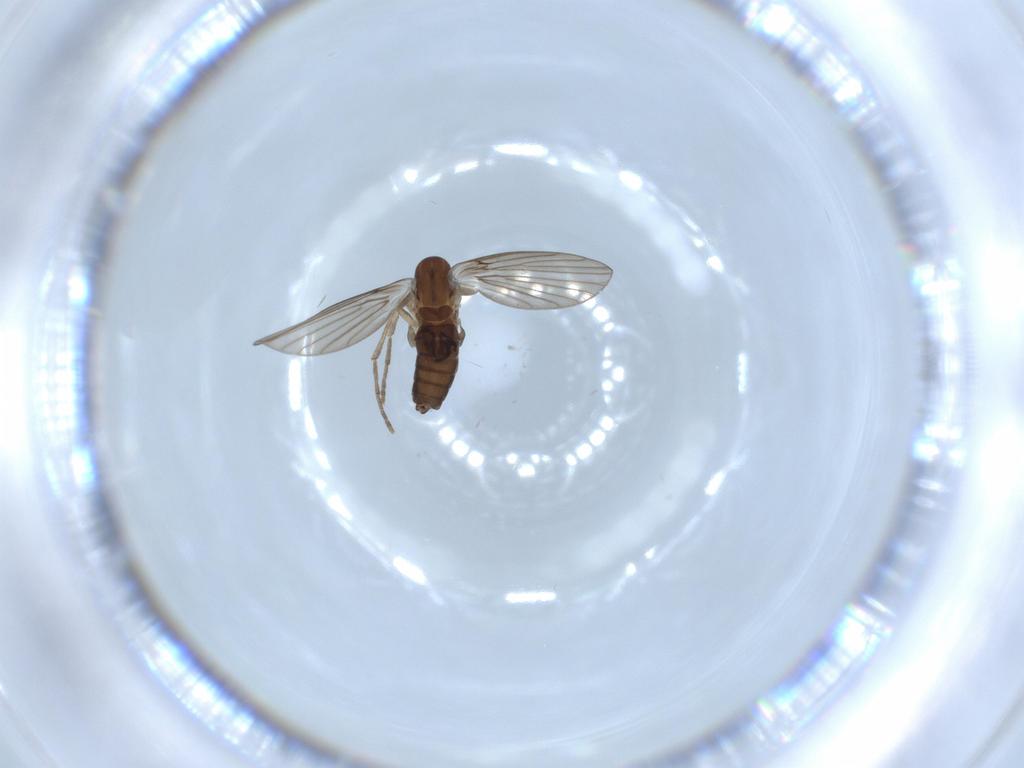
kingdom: Animalia
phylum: Arthropoda
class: Insecta
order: Diptera
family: Psychodidae
